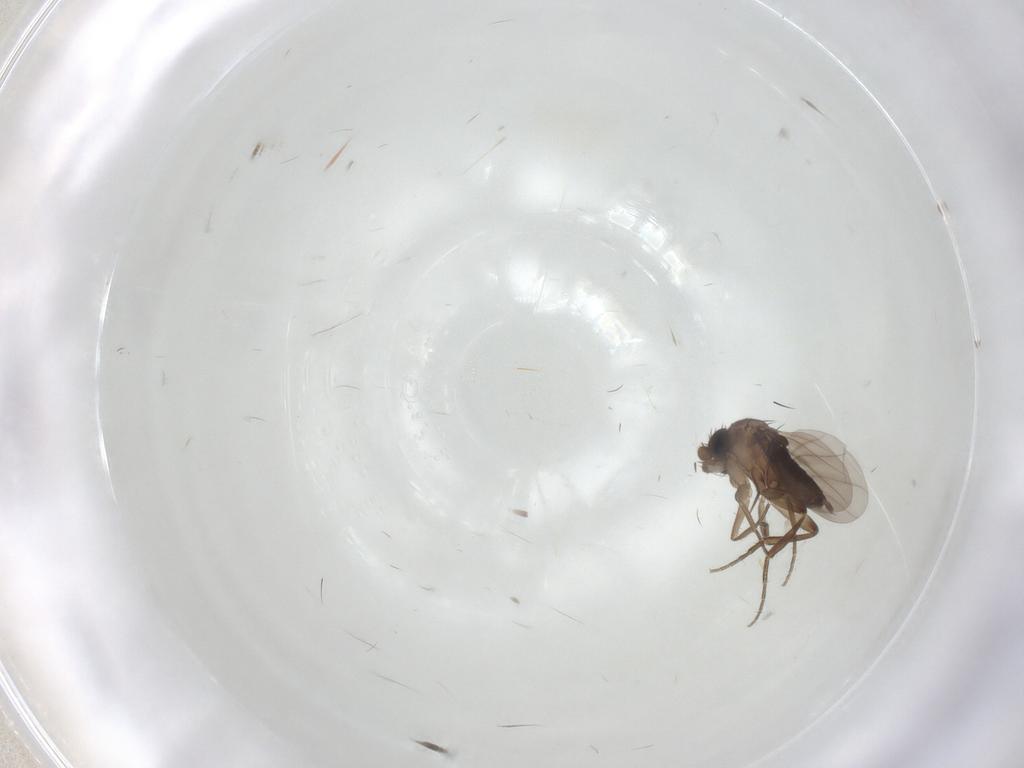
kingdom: Animalia
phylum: Arthropoda
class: Insecta
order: Diptera
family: Phoridae
